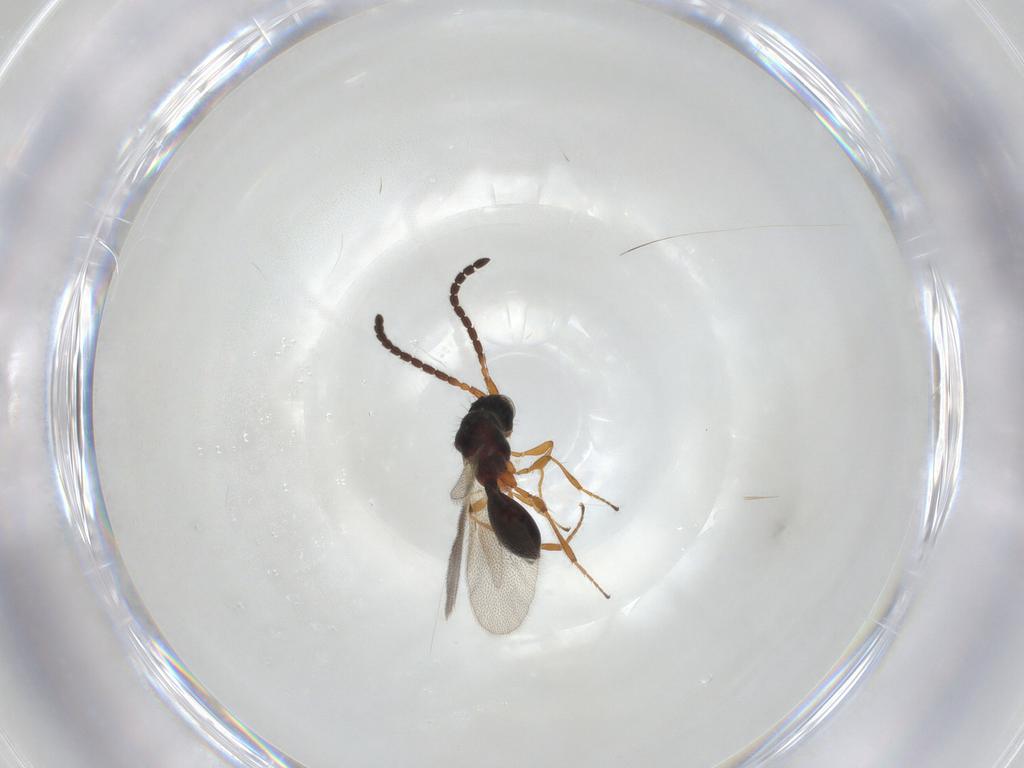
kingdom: Animalia
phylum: Arthropoda
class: Insecta
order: Hymenoptera
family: Diapriidae
